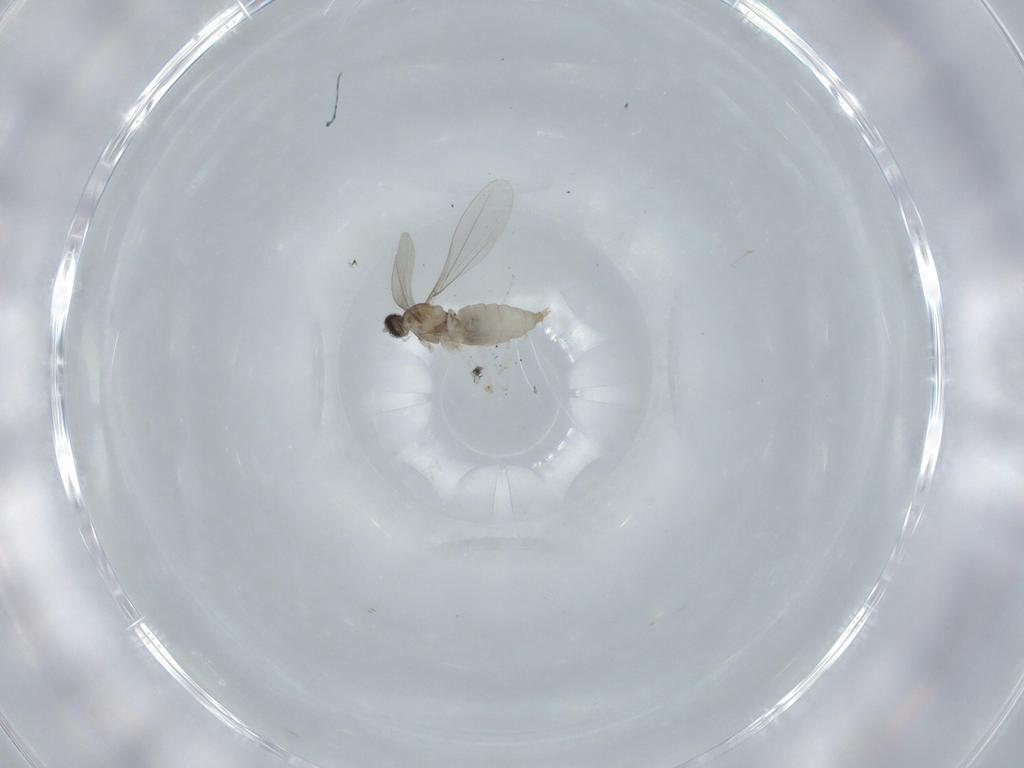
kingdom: Animalia
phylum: Arthropoda
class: Insecta
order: Diptera
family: Cecidomyiidae
